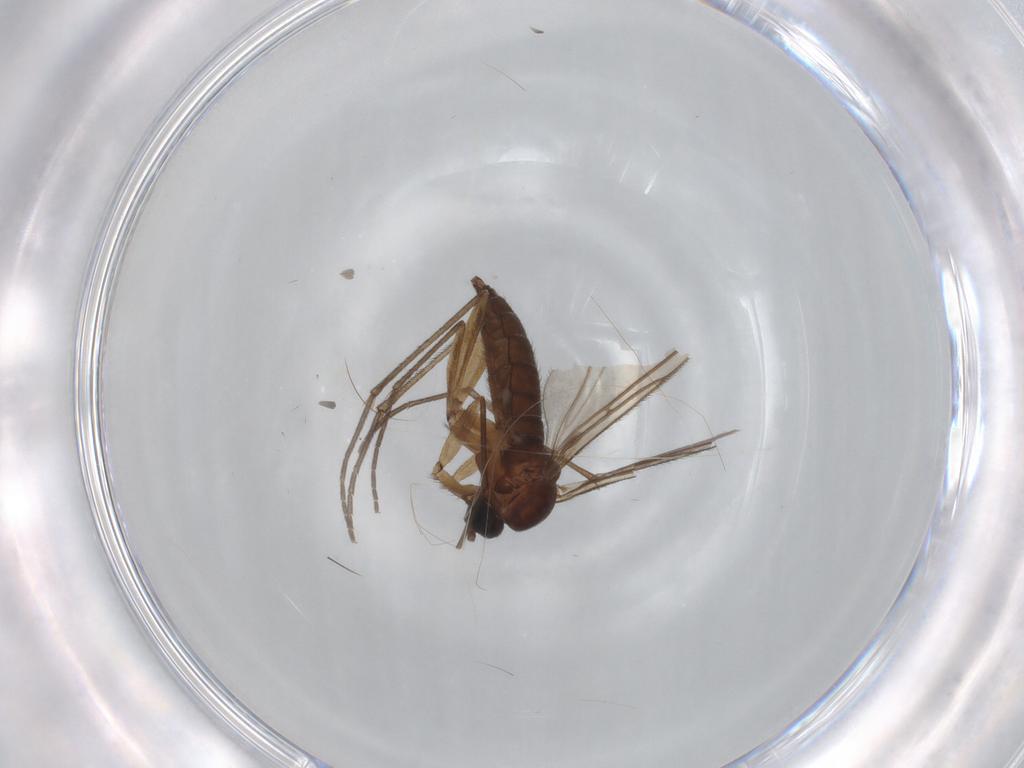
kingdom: Animalia
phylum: Arthropoda
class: Insecta
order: Diptera
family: Sciaridae
